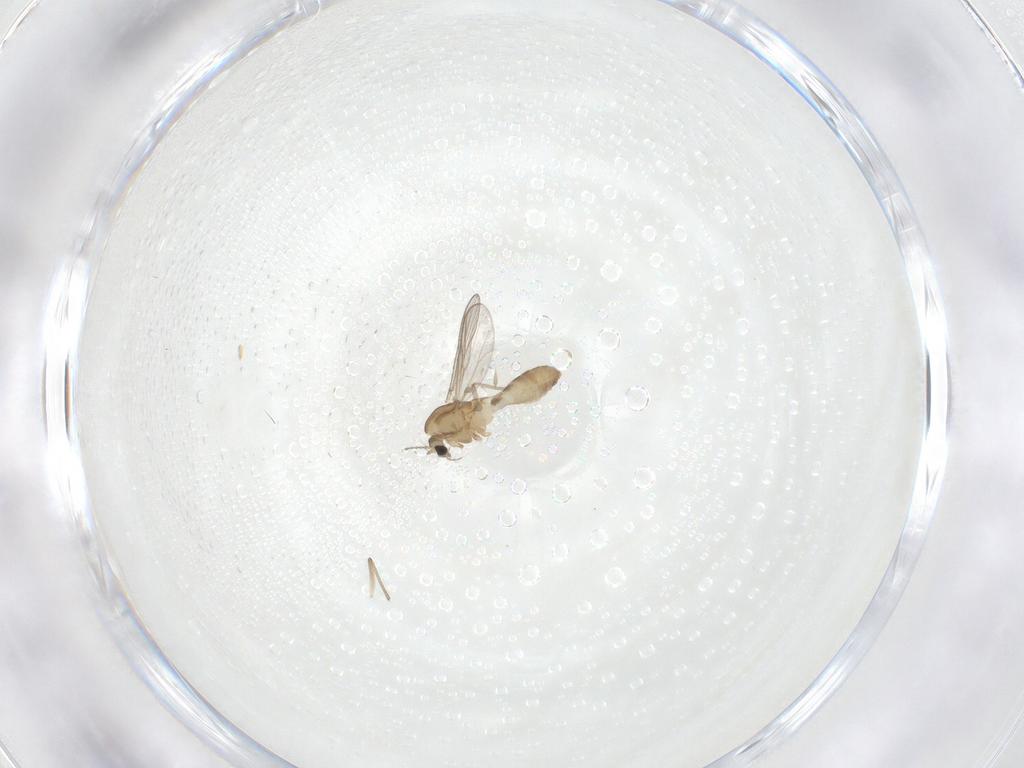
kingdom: Animalia
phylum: Arthropoda
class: Insecta
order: Diptera
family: Chironomidae
